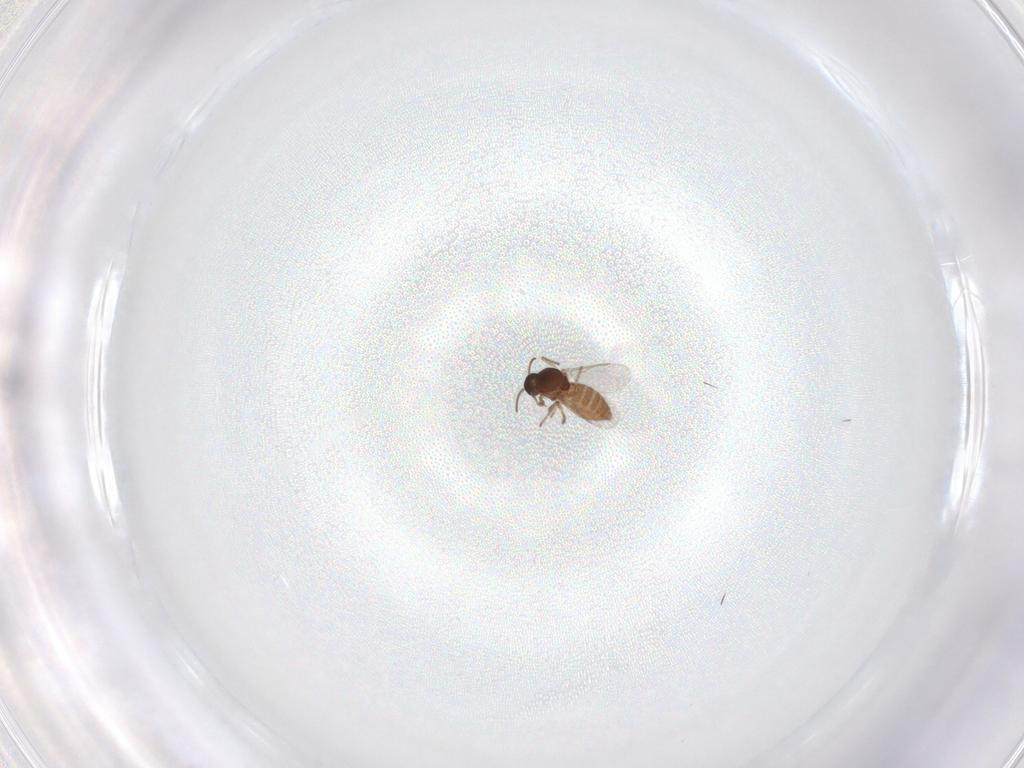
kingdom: Animalia
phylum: Arthropoda
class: Insecta
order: Diptera
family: Ceratopogonidae
